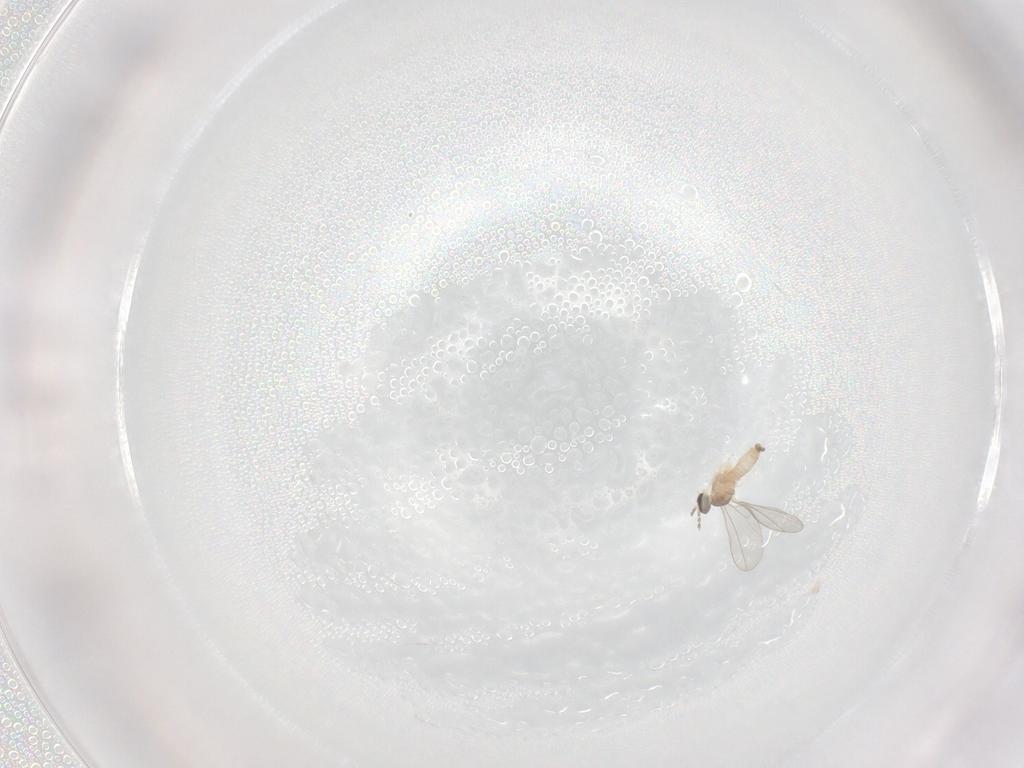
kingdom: Animalia
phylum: Arthropoda
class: Insecta
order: Diptera
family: Cecidomyiidae
